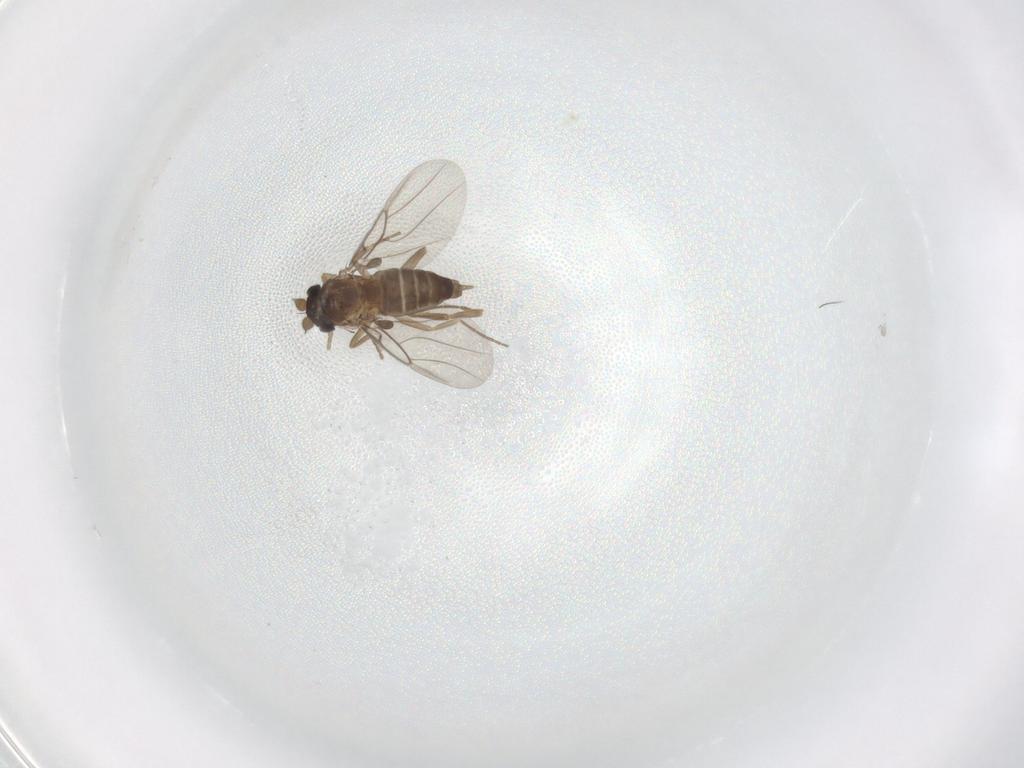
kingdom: Animalia
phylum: Arthropoda
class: Insecta
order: Diptera
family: Phoridae
